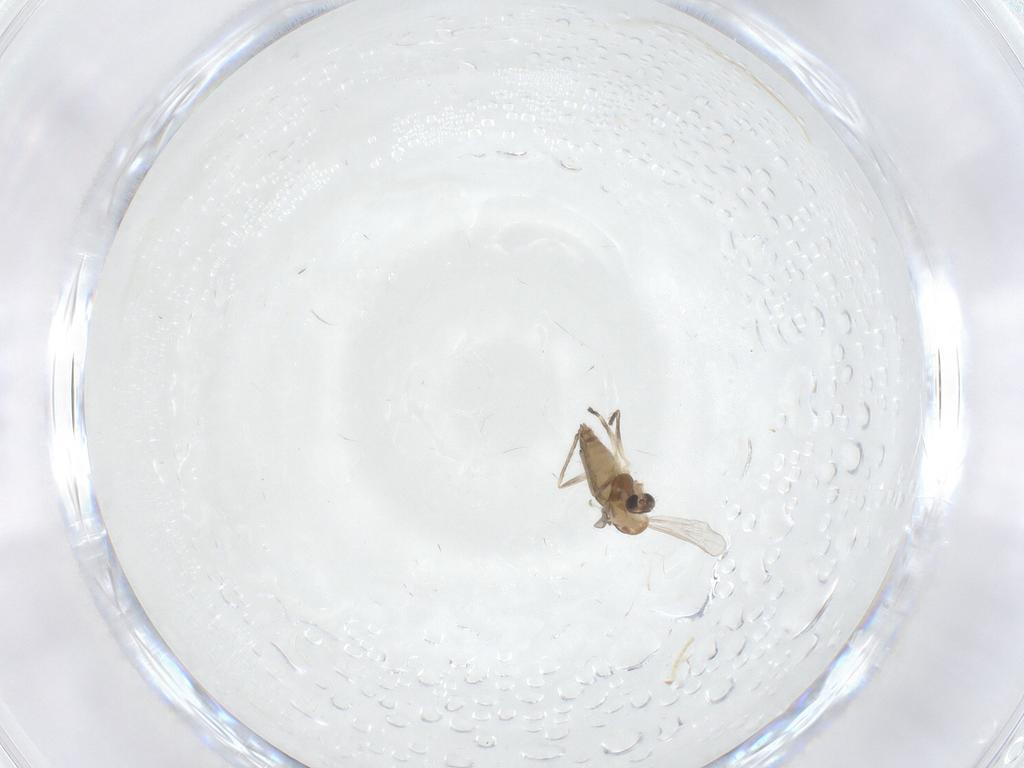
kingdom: Animalia
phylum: Arthropoda
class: Insecta
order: Diptera
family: Chironomidae
